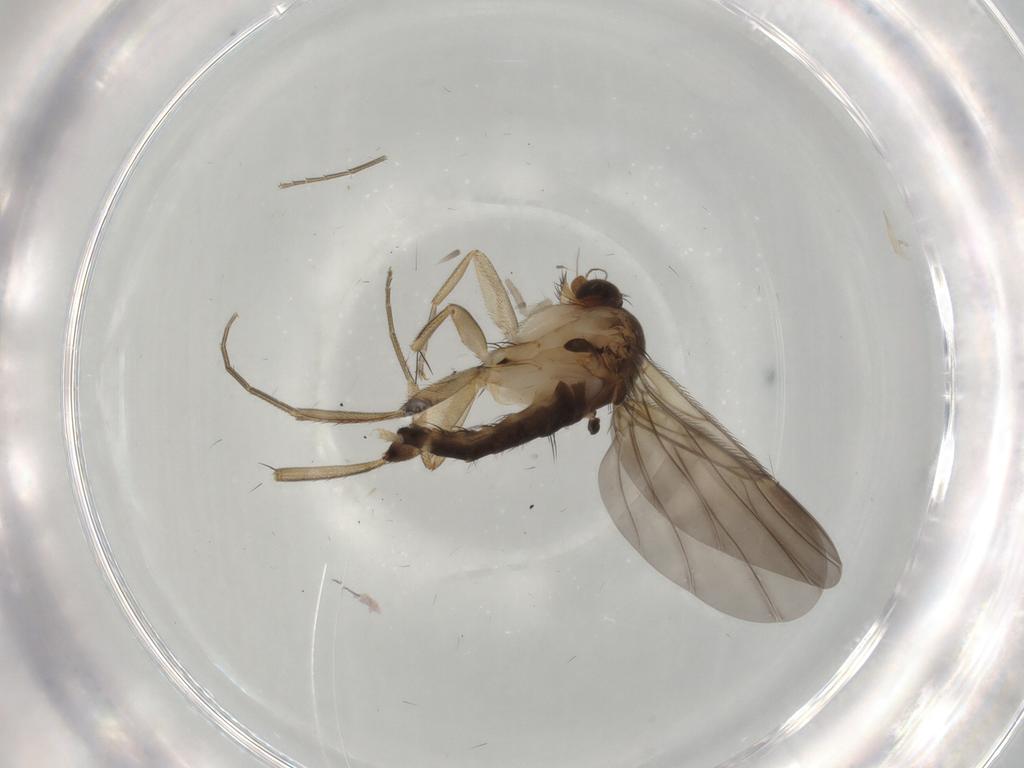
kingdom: Animalia
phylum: Arthropoda
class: Insecta
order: Diptera
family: Phoridae
